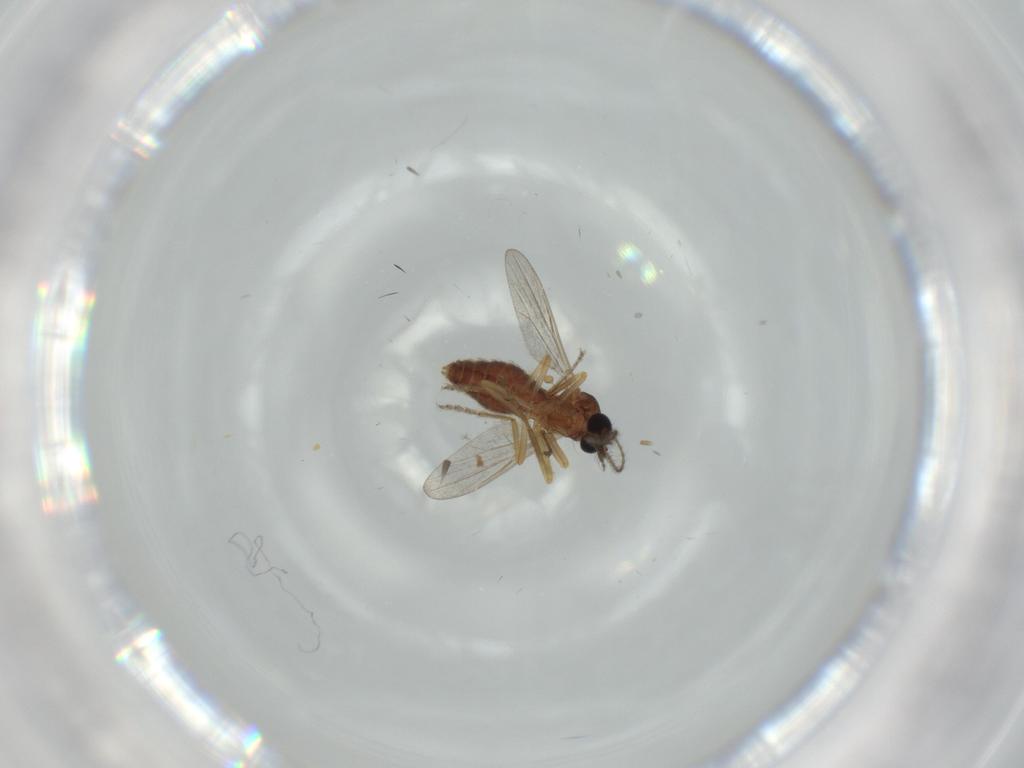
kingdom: Animalia
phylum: Arthropoda
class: Insecta
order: Diptera
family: Ceratopogonidae
